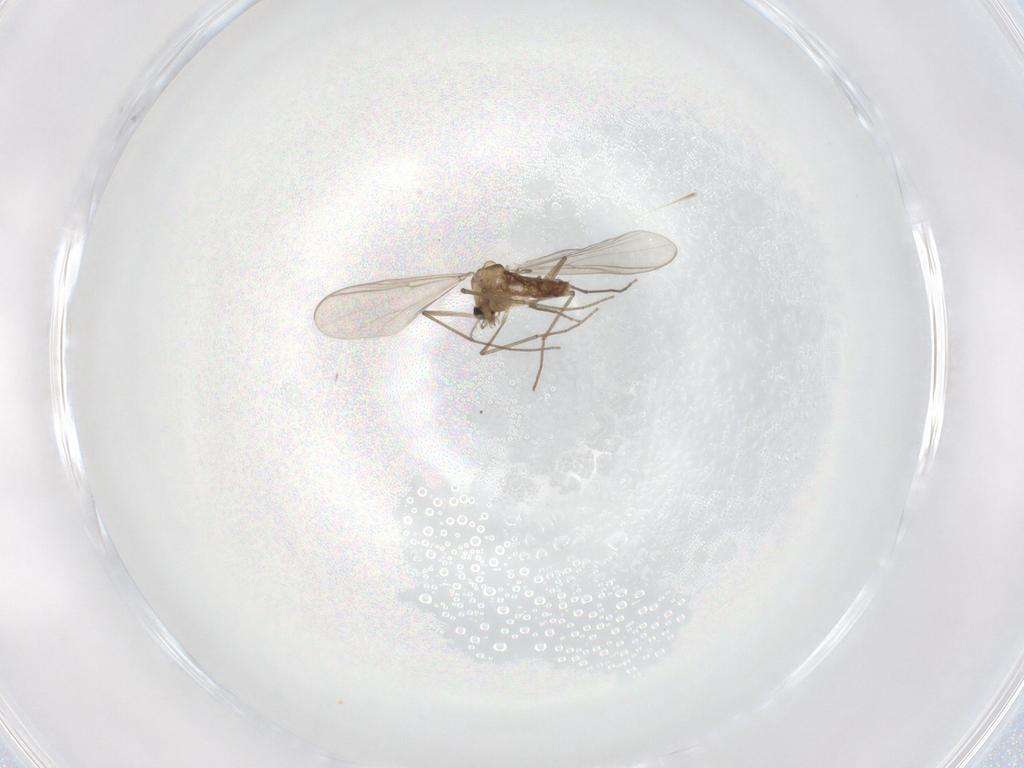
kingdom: Animalia
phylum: Arthropoda
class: Insecta
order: Diptera
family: Chironomidae
